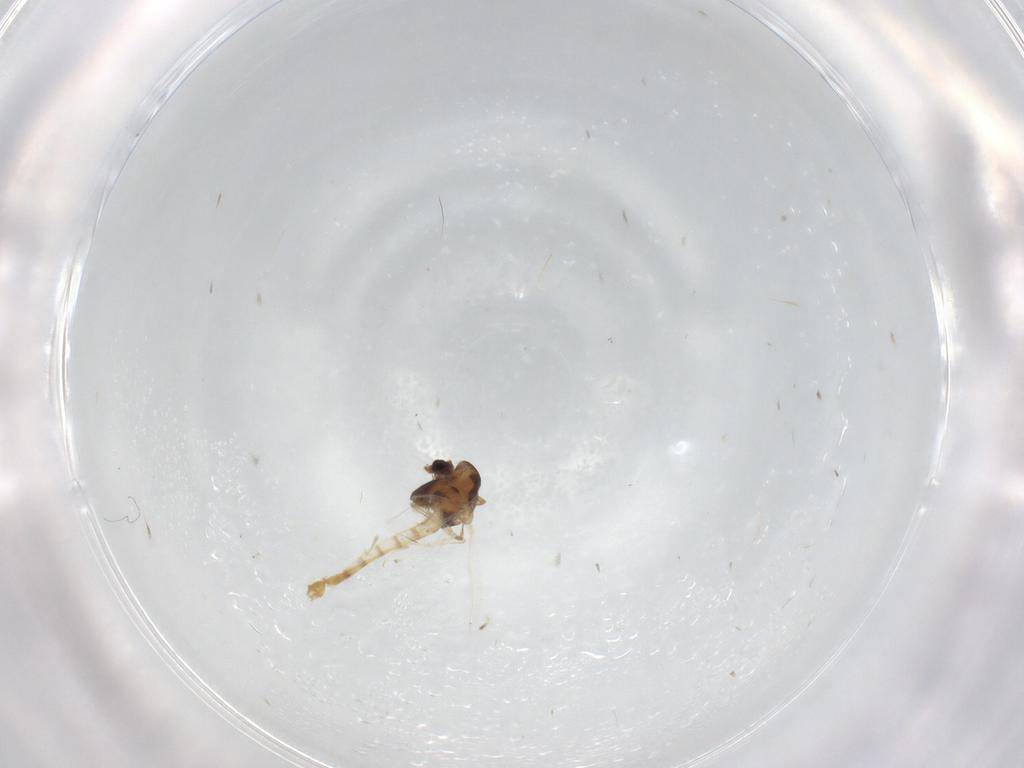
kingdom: Animalia
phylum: Arthropoda
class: Insecta
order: Diptera
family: Chironomidae
